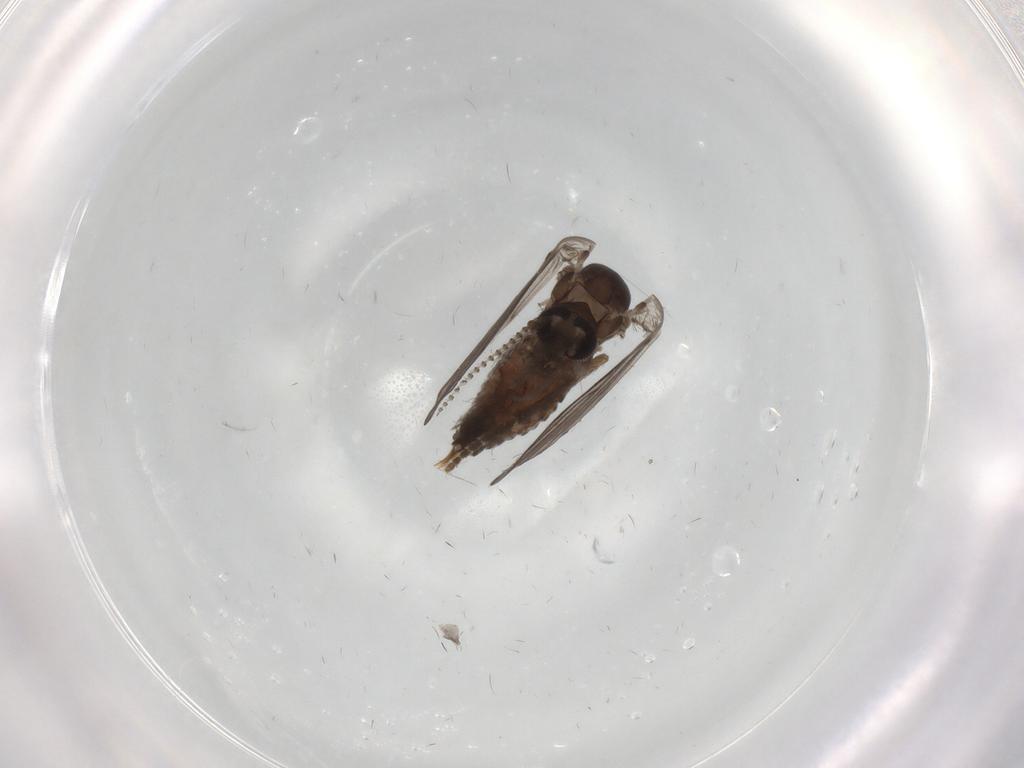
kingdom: Animalia
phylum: Arthropoda
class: Insecta
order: Diptera
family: Psychodidae
